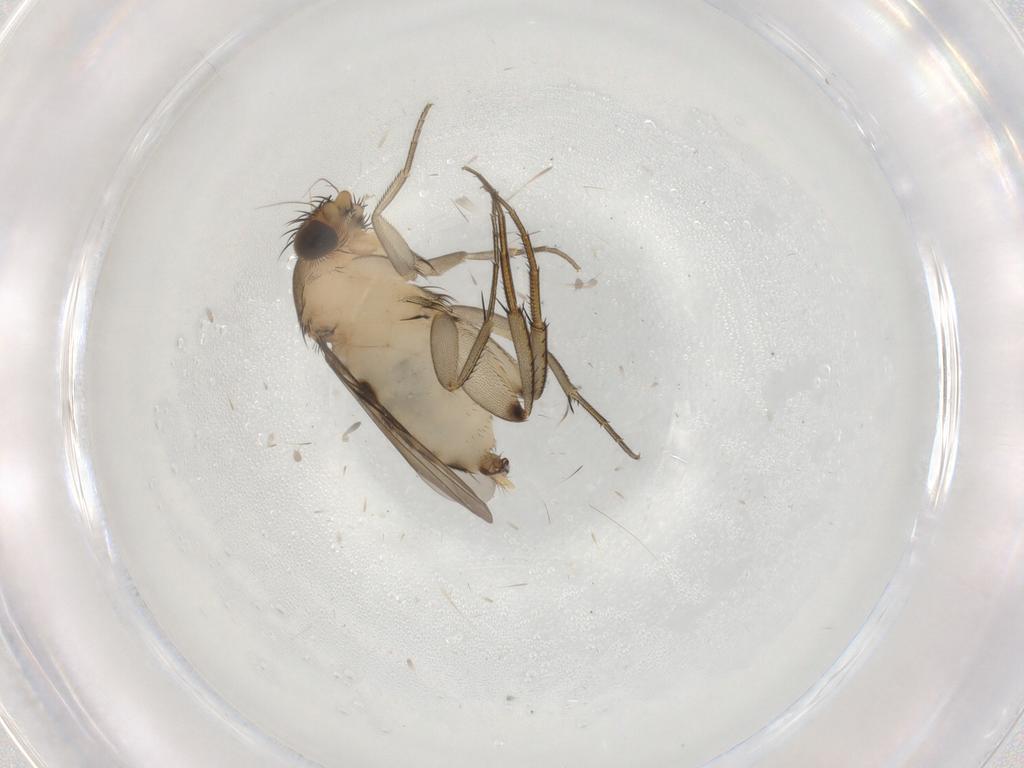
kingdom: Animalia
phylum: Arthropoda
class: Insecta
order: Diptera
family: Phoridae
